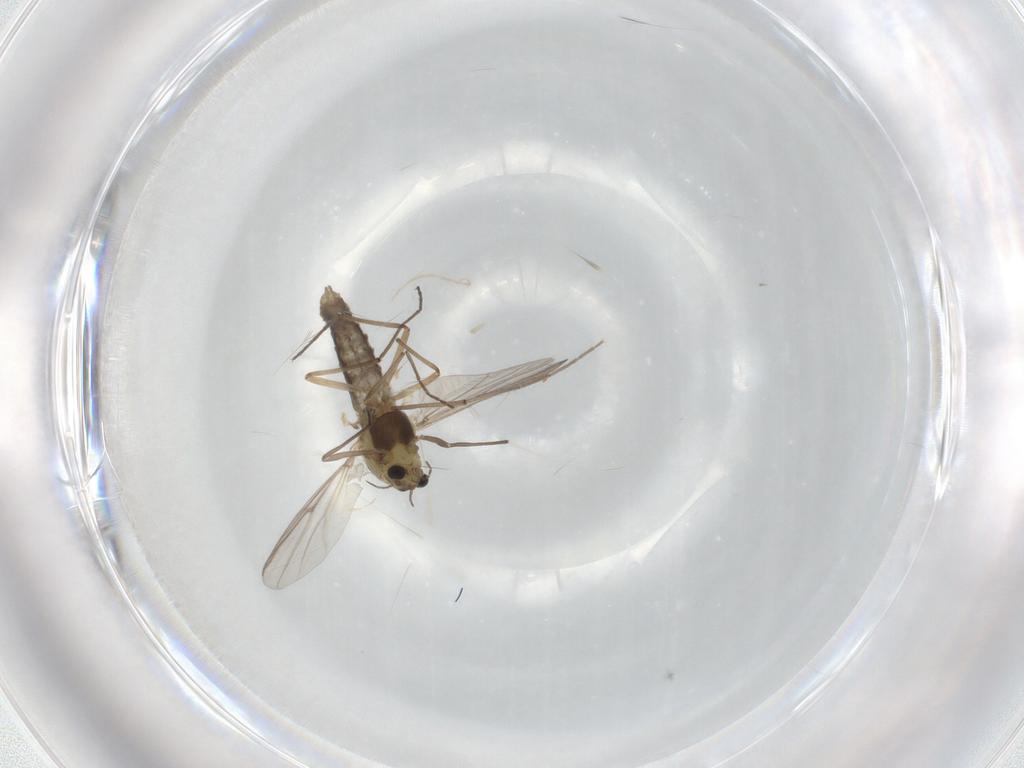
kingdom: Animalia
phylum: Arthropoda
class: Insecta
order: Diptera
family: Chironomidae
